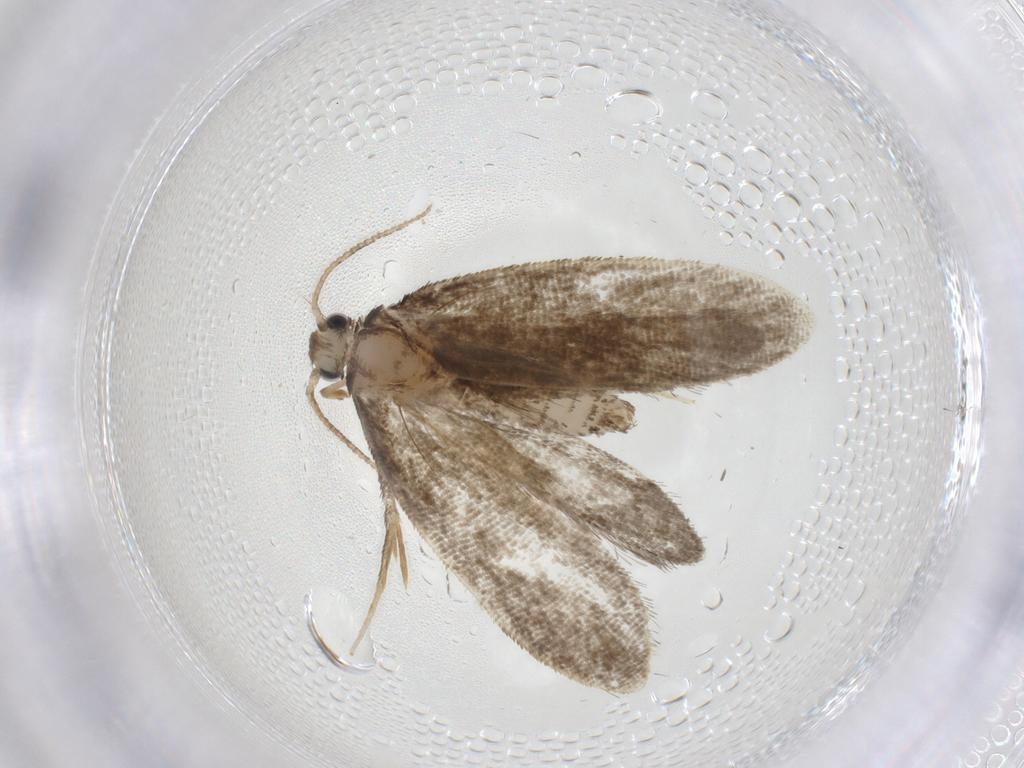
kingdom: Animalia
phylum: Arthropoda
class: Insecta
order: Lepidoptera
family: Psychidae
